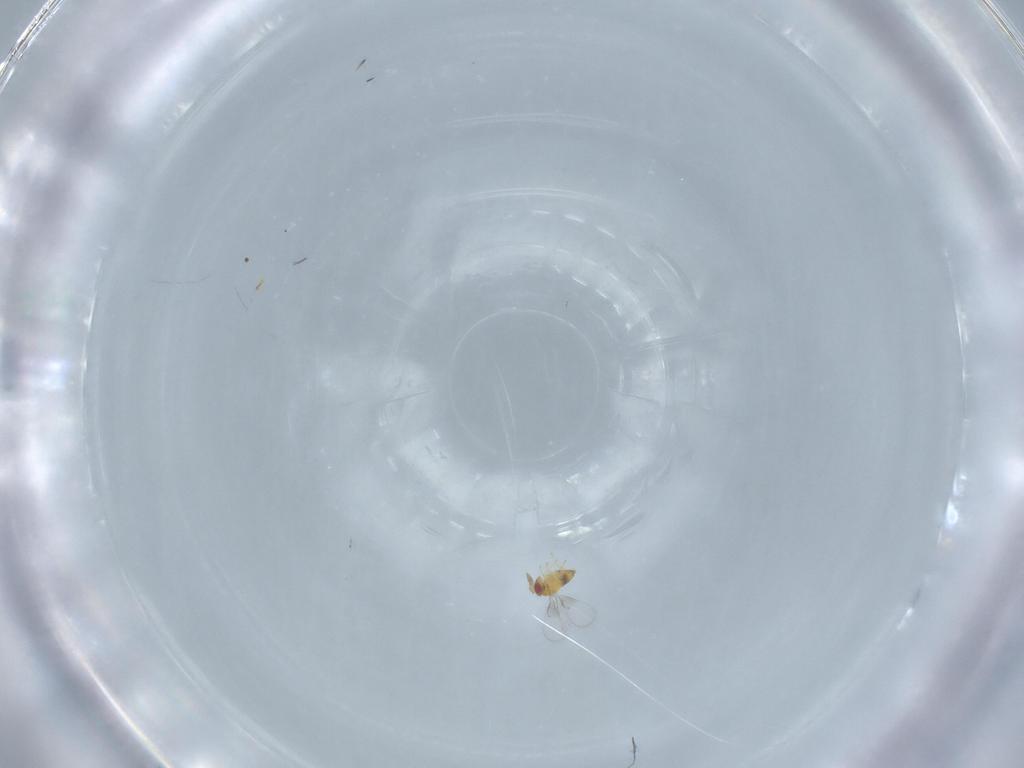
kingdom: Animalia
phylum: Arthropoda
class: Insecta
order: Hymenoptera
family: Trichogrammatidae
